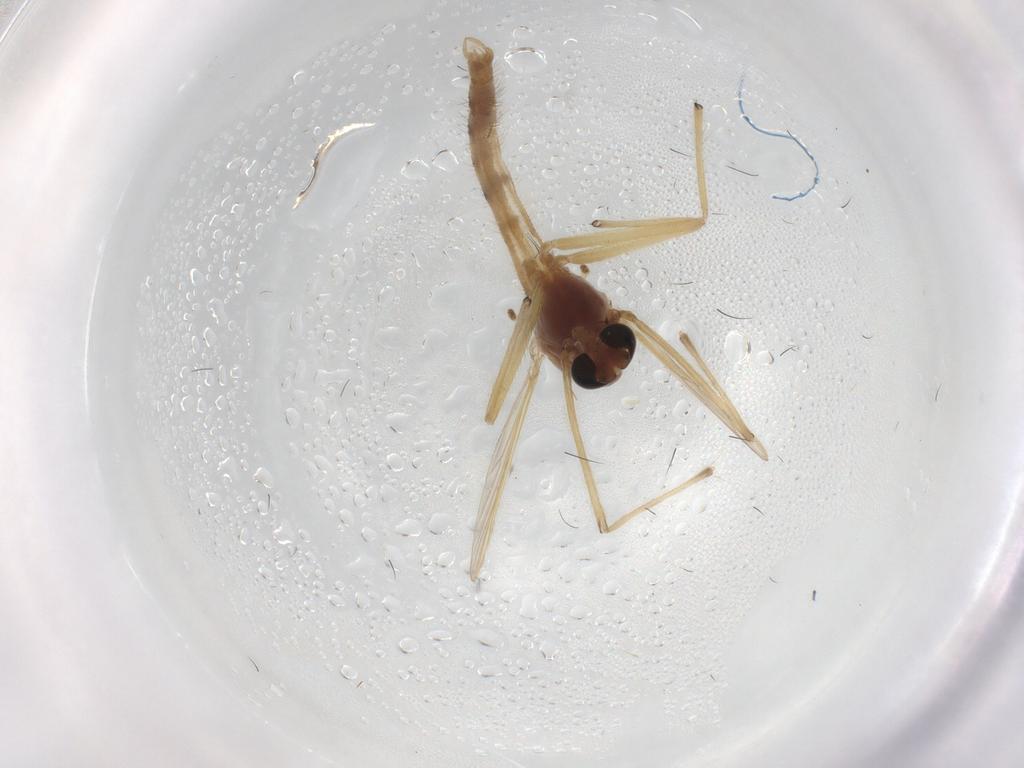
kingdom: Animalia
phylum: Arthropoda
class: Insecta
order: Diptera
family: Chironomidae
